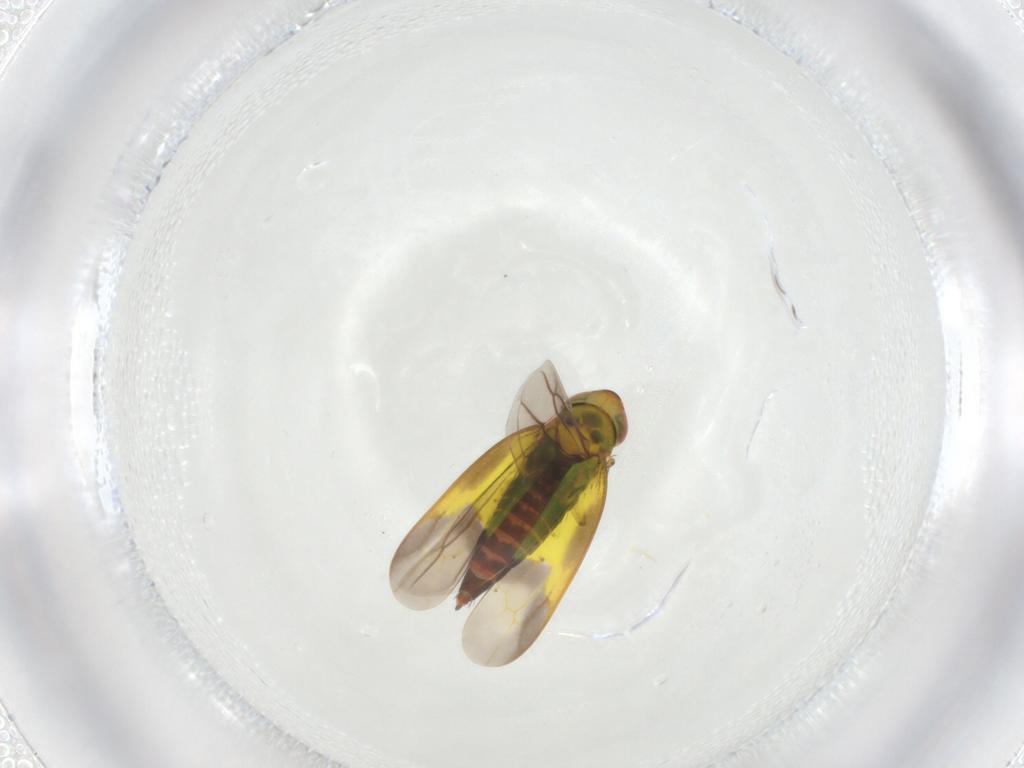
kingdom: Animalia
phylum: Arthropoda
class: Insecta
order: Hemiptera
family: Cicadellidae
